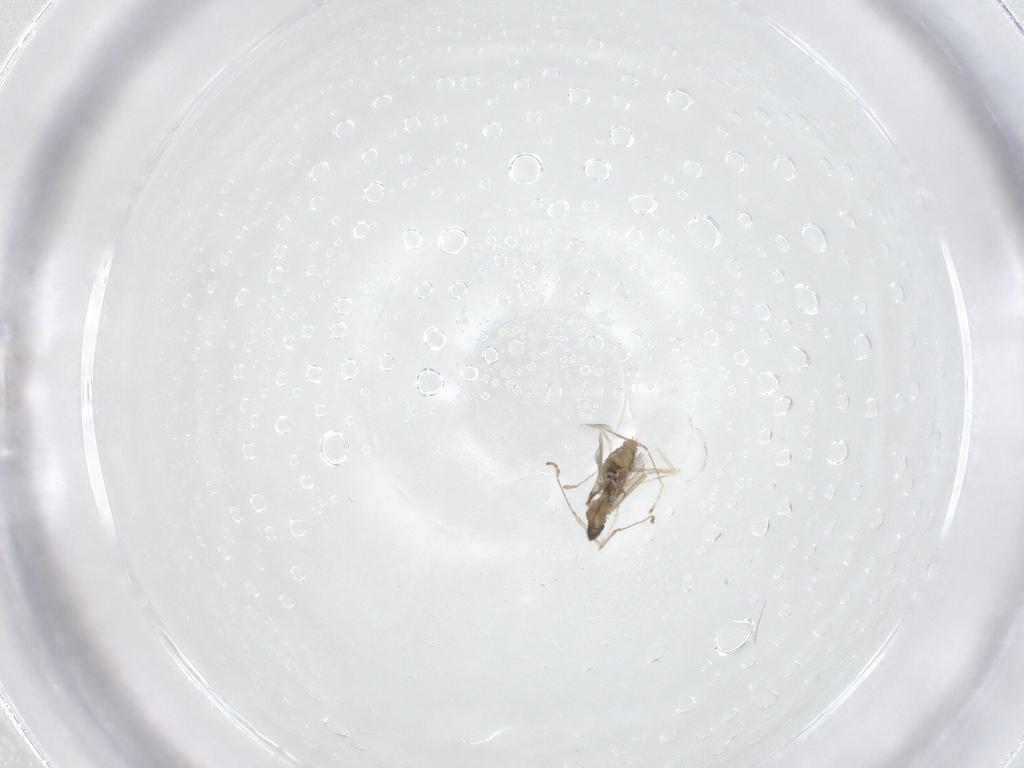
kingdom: Animalia
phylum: Arthropoda
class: Insecta
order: Diptera
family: Cecidomyiidae
